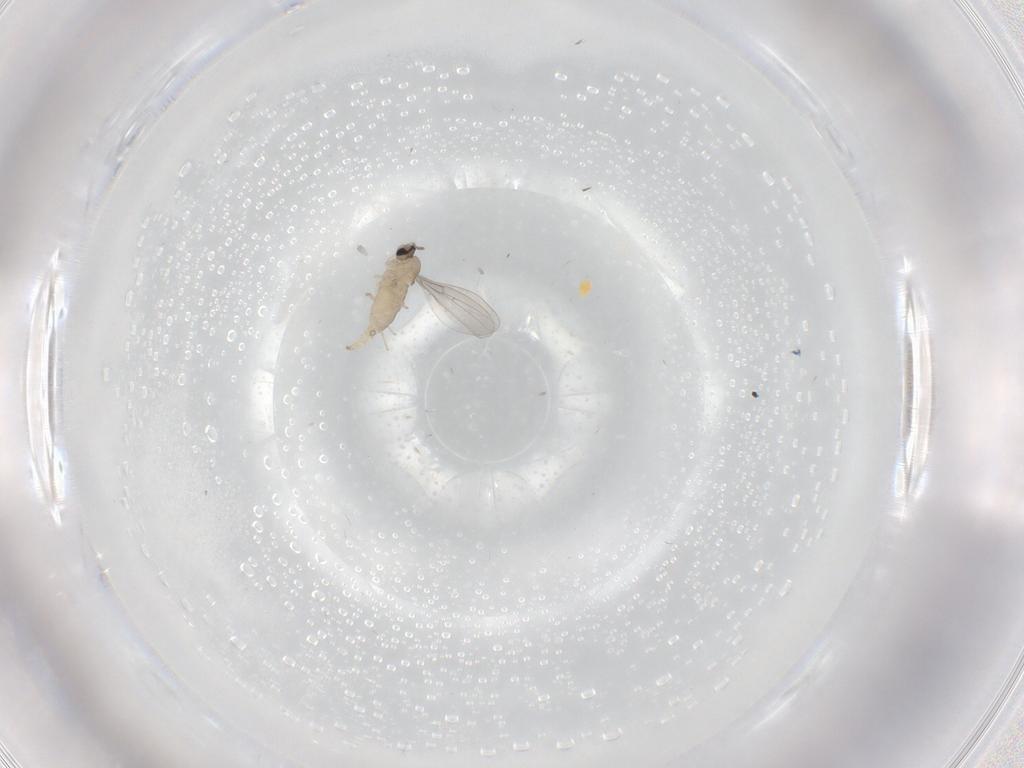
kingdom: Animalia
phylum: Arthropoda
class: Insecta
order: Diptera
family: Cecidomyiidae
